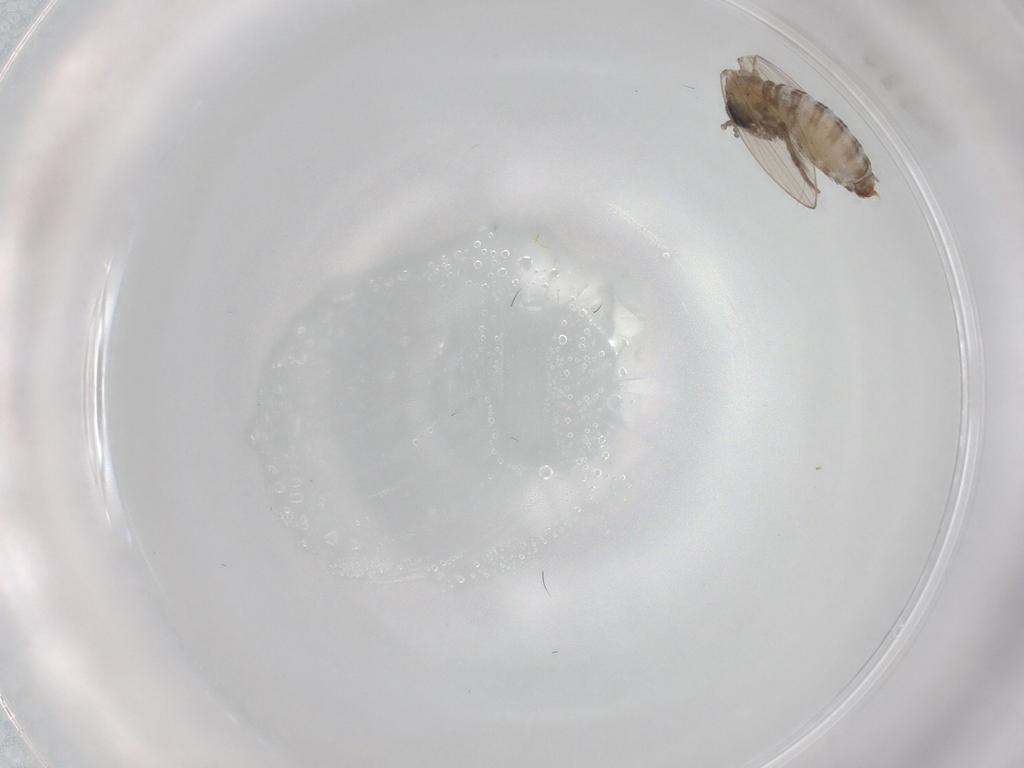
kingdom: Animalia
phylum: Arthropoda
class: Insecta
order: Diptera
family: Psychodidae
